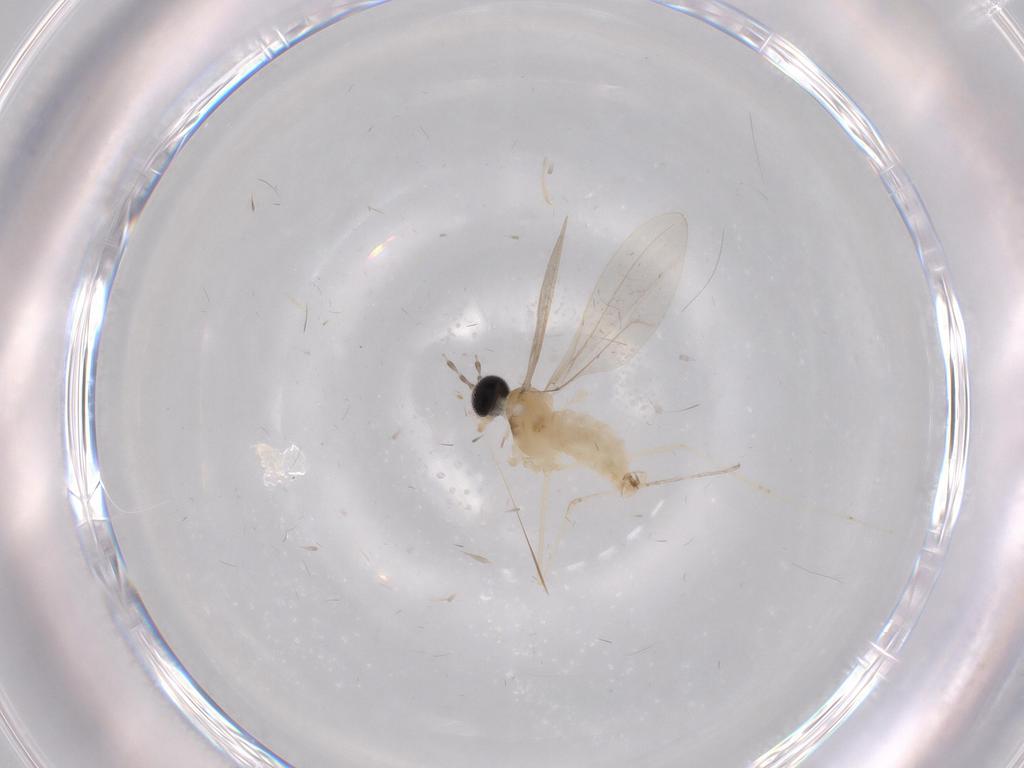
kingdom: Animalia
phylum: Arthropoda
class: Insecta
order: Diptera
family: Cecidomyiidae
